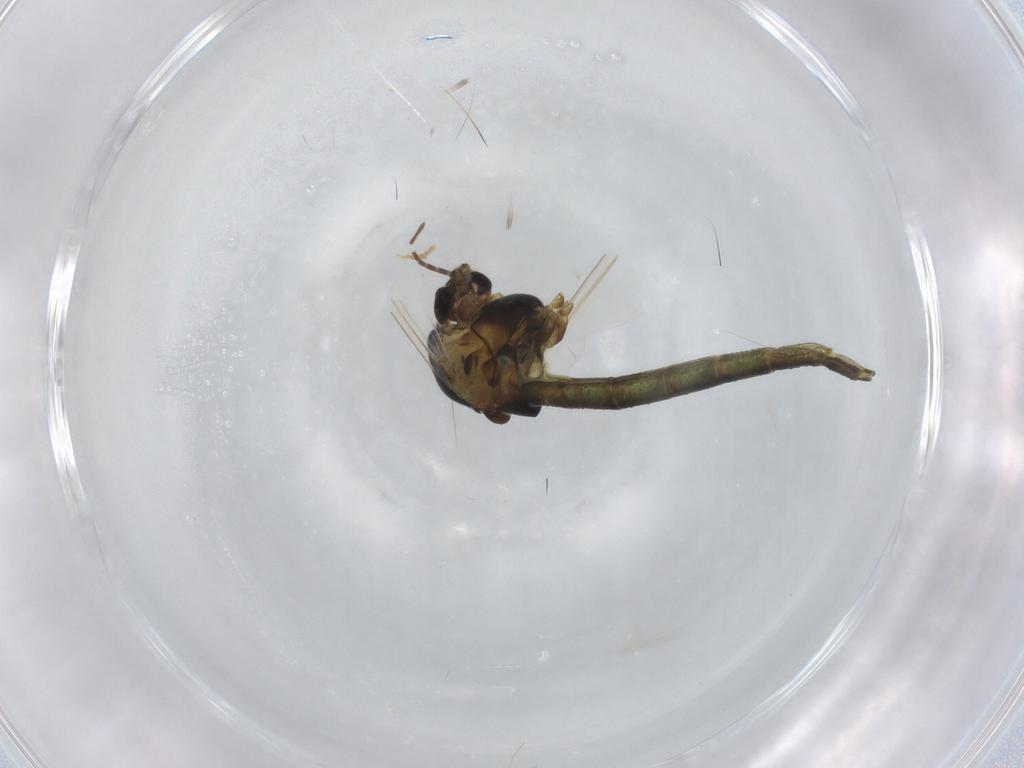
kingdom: Animalia
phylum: Arthropoda
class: Insecta
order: Diptera
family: Chironomidae
